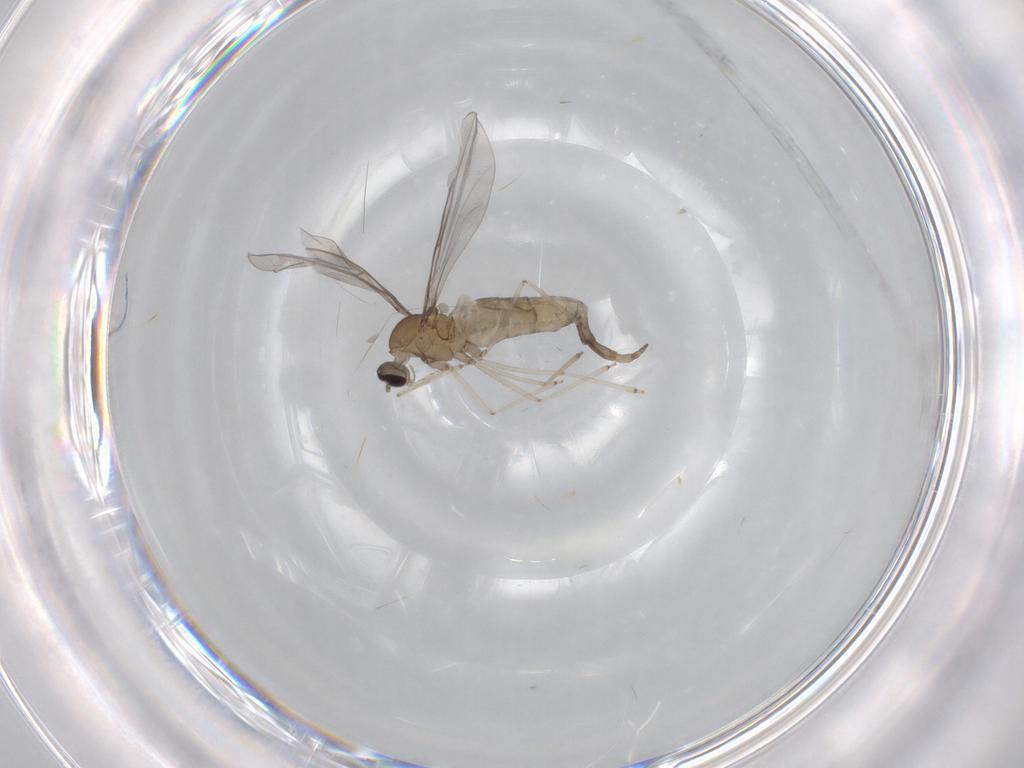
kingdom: Animalia
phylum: Arthropoda
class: Insecta
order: Diptera
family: Cecidomyiidae
